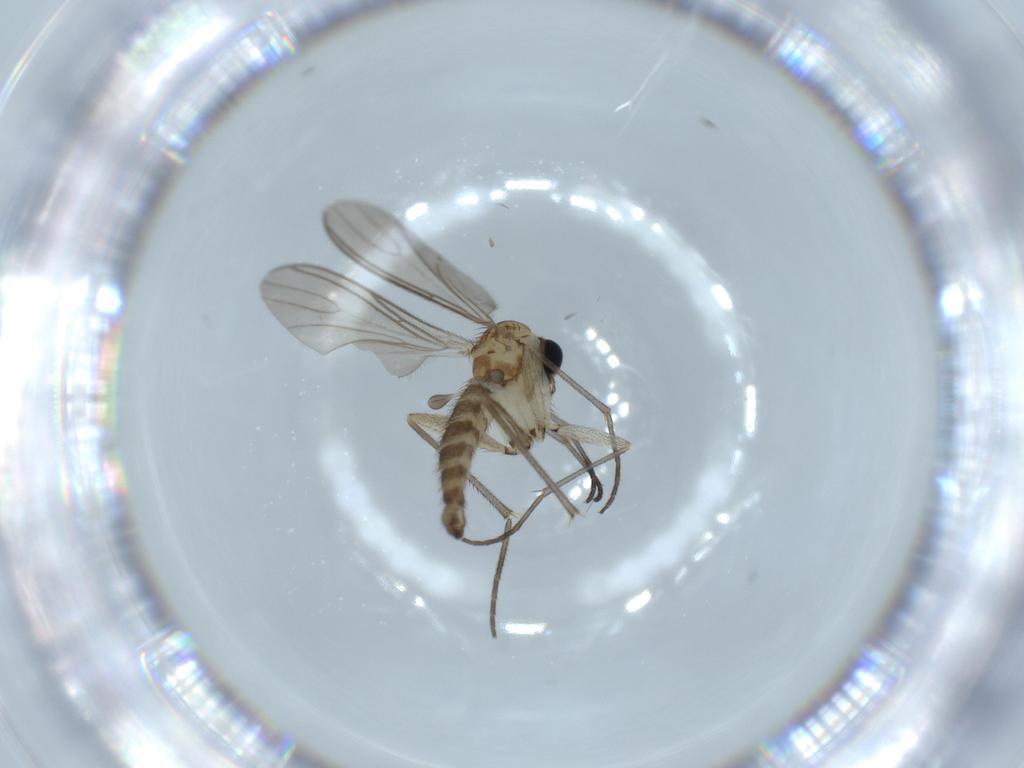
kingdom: Animalia
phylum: Arthropoda
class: Insecta
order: Diptera
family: Sciaridae
